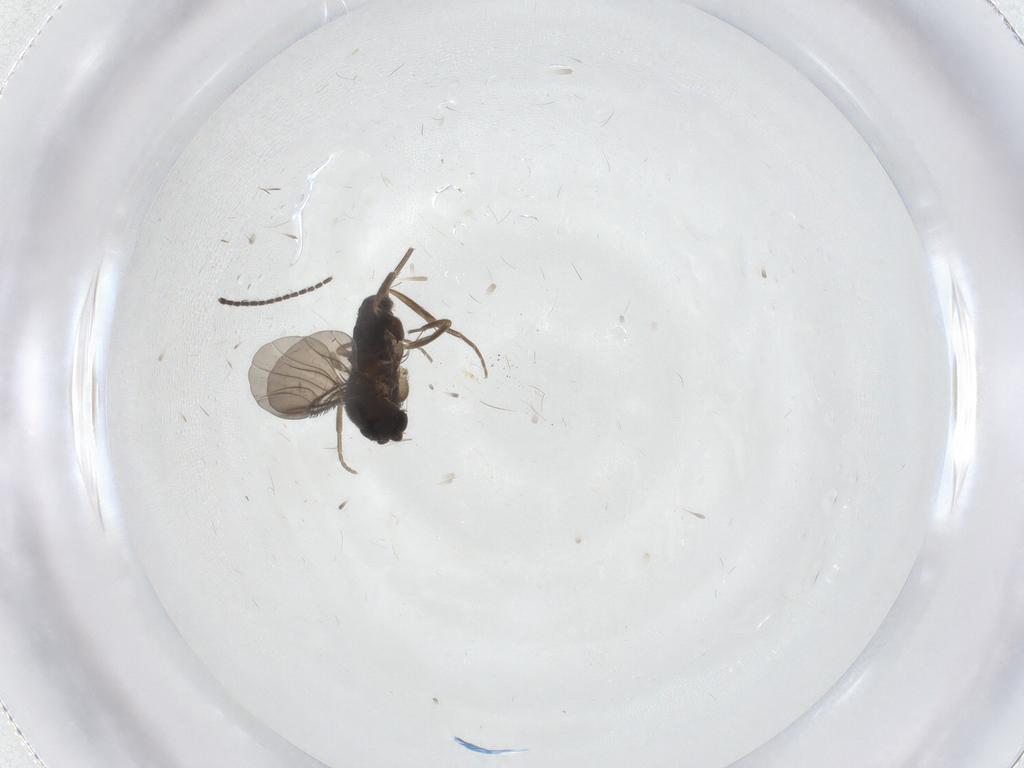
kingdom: Animalia
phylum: Arthropoda
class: Insecta
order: Diptera
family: Phoridae
